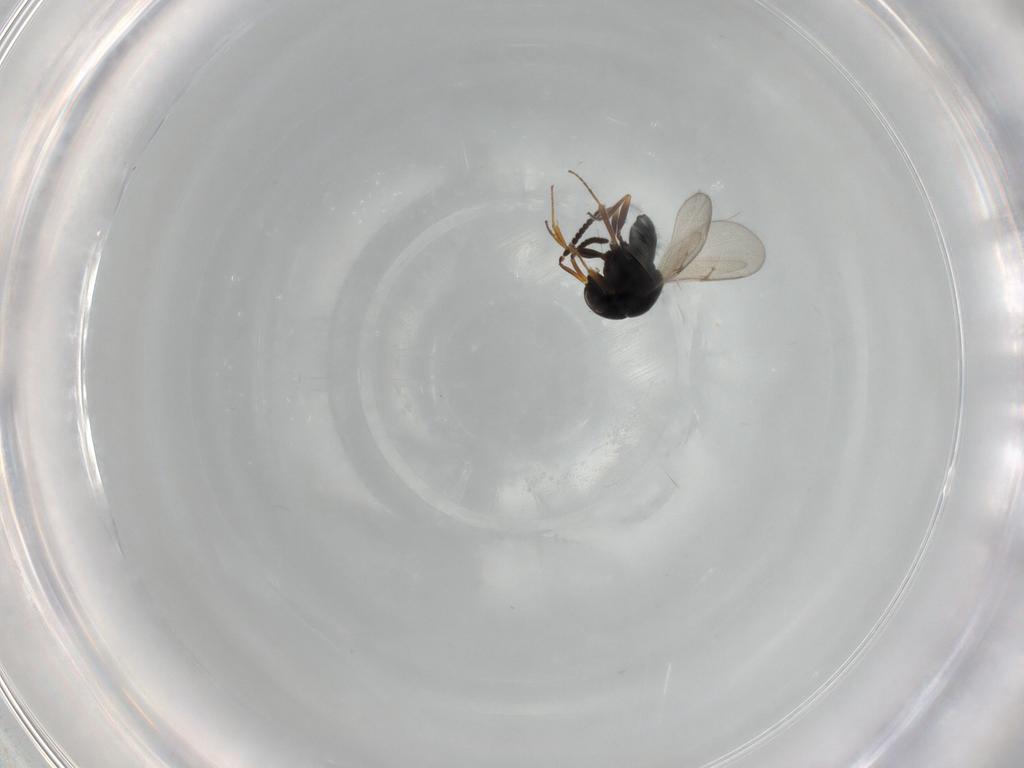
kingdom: Animalia
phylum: Arthropoda
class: Insecta
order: Hymenoptera
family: Scelionidae
